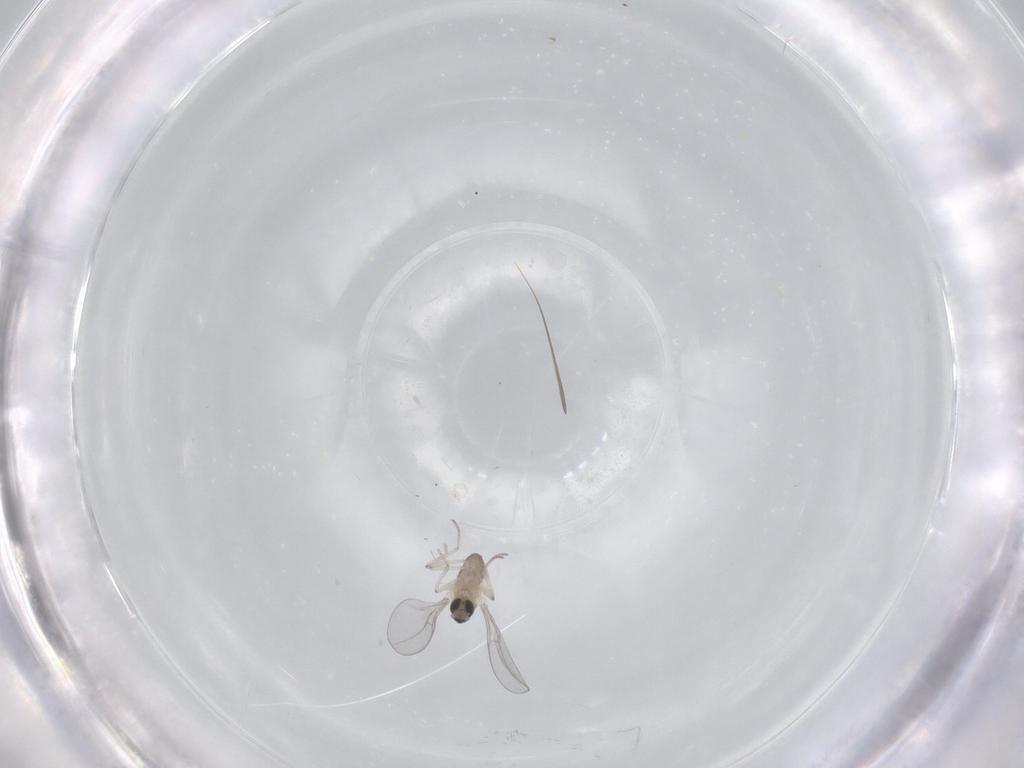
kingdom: Animalia
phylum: Arthropoda
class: Insecta
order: Diptera
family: Cecidomyiidae
